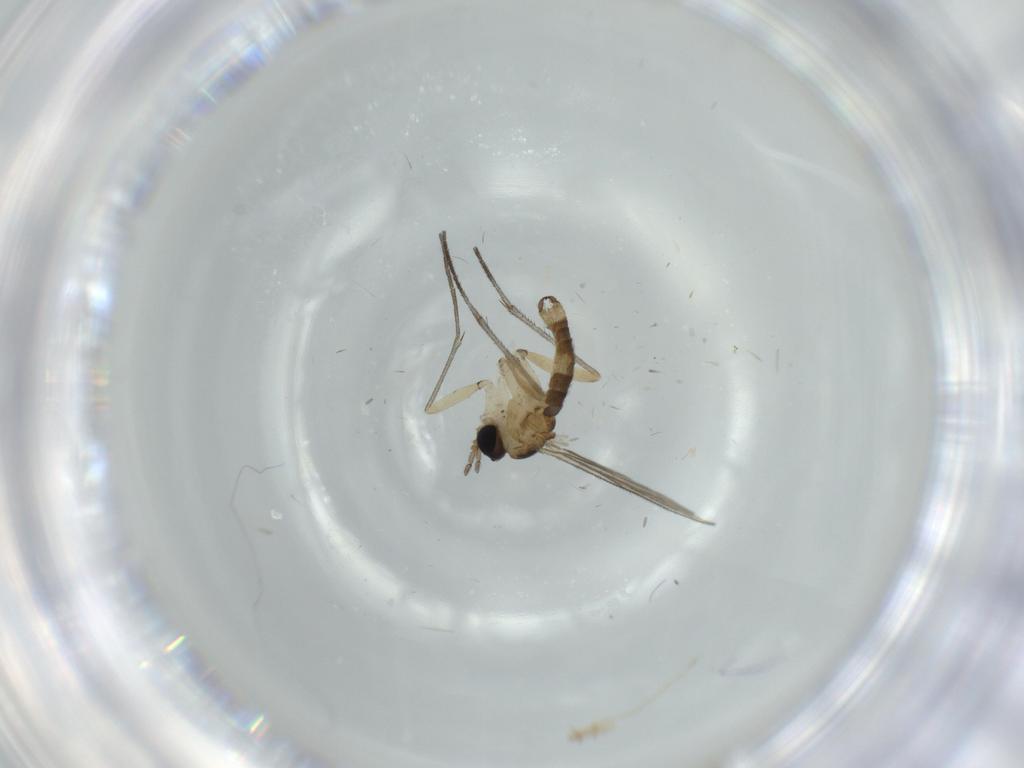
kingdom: Animalia
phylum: Arthropoda
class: Insecta
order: Diptera
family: Sciaridae
